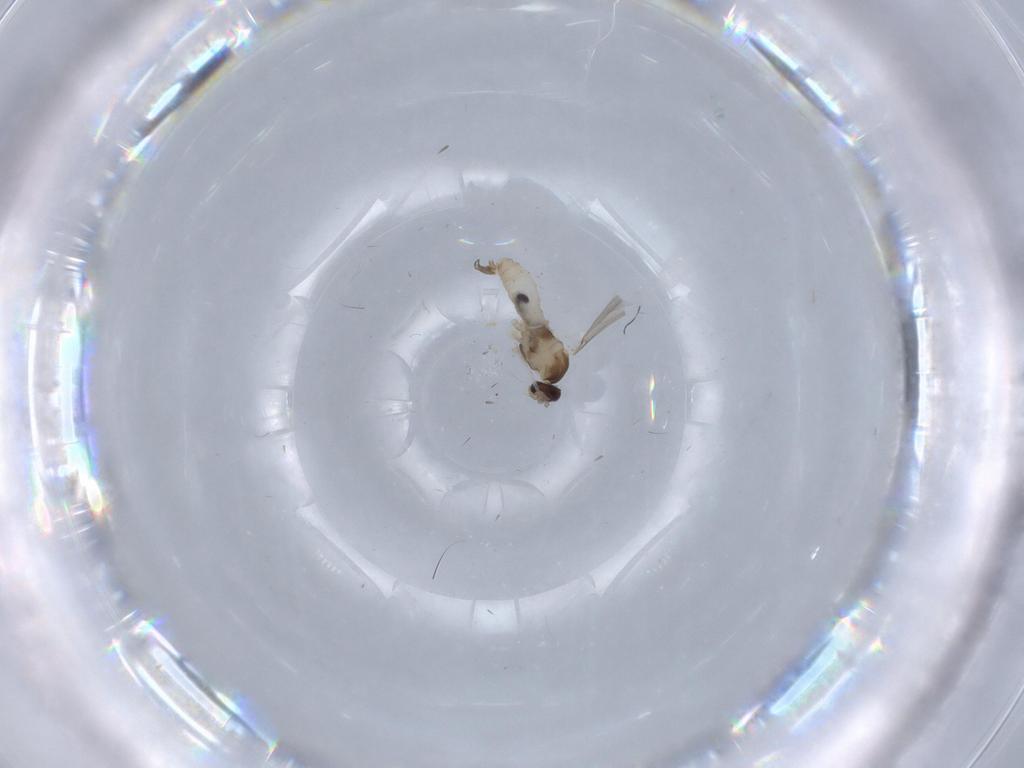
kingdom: Animalia
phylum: Arthropoda
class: Insecta
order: Diptera
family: Cecidomyiidae
